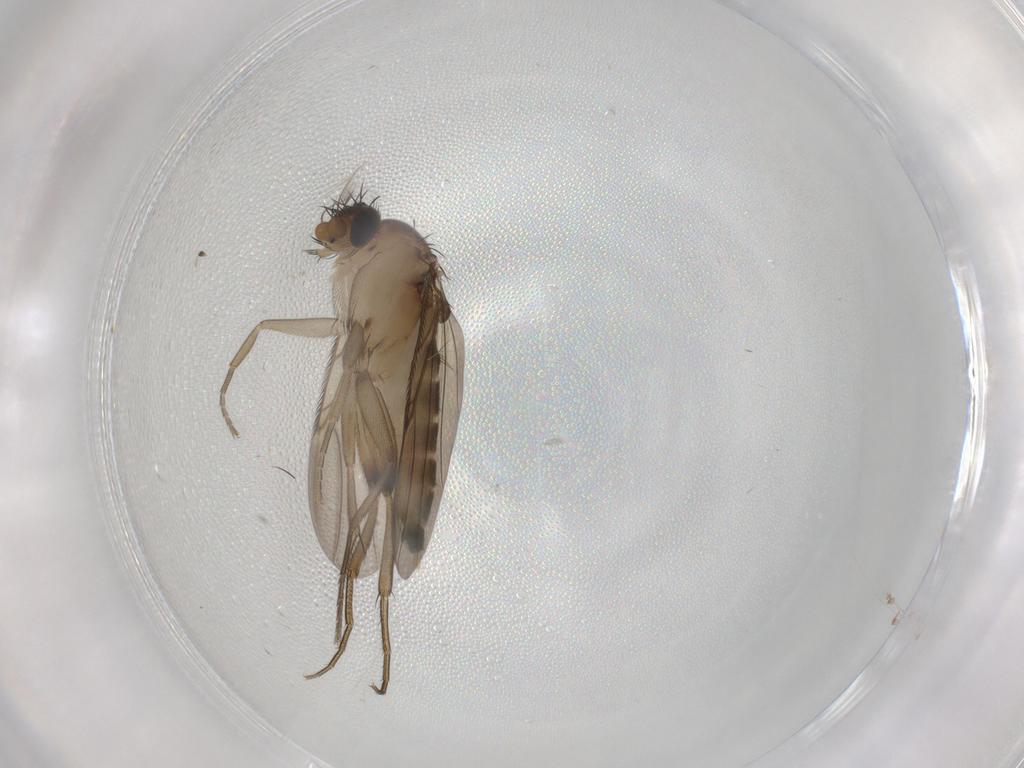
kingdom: Animalia
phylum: Arthropoda
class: Insecta
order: Diptera
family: Phoridae
